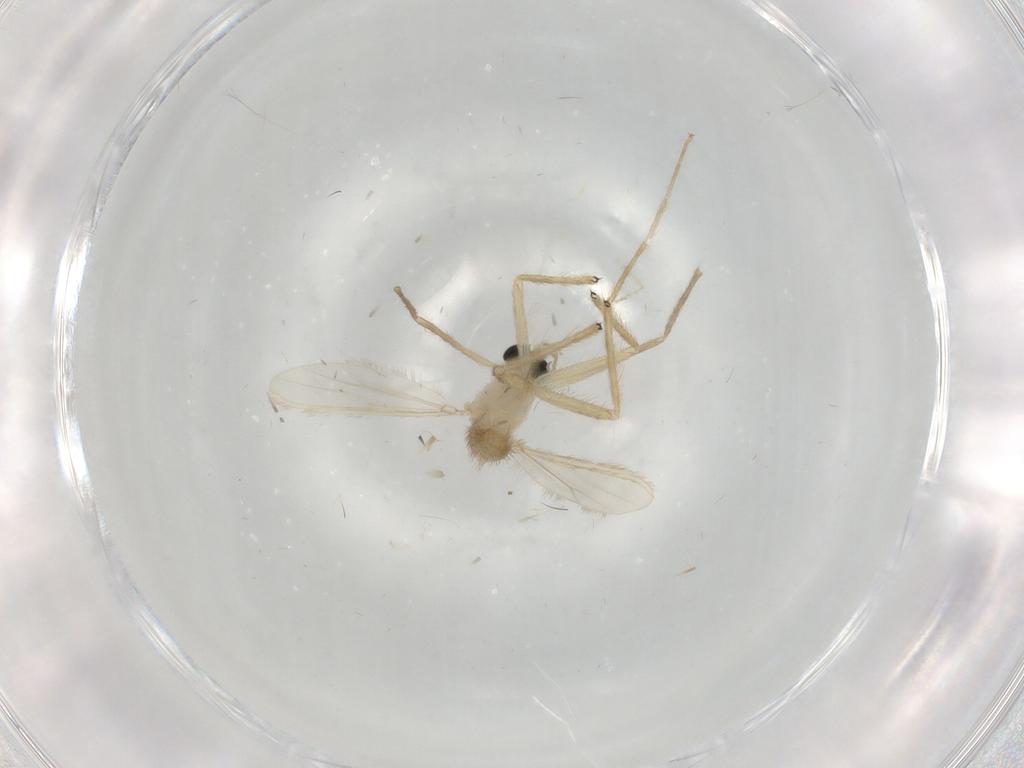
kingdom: Animalia
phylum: Arthropoda
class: Insecta
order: Diptera
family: Cecidomyiidae
